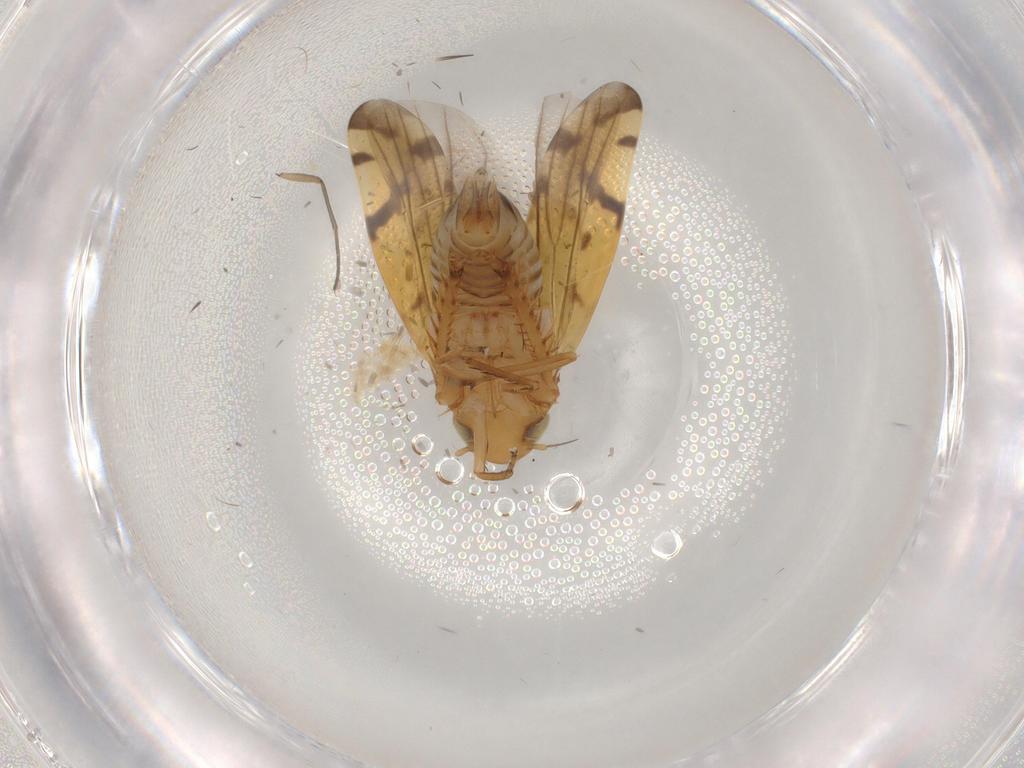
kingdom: Animalia
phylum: Arthropoda
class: Insecta
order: Hemiptera
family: Cicadellidae
